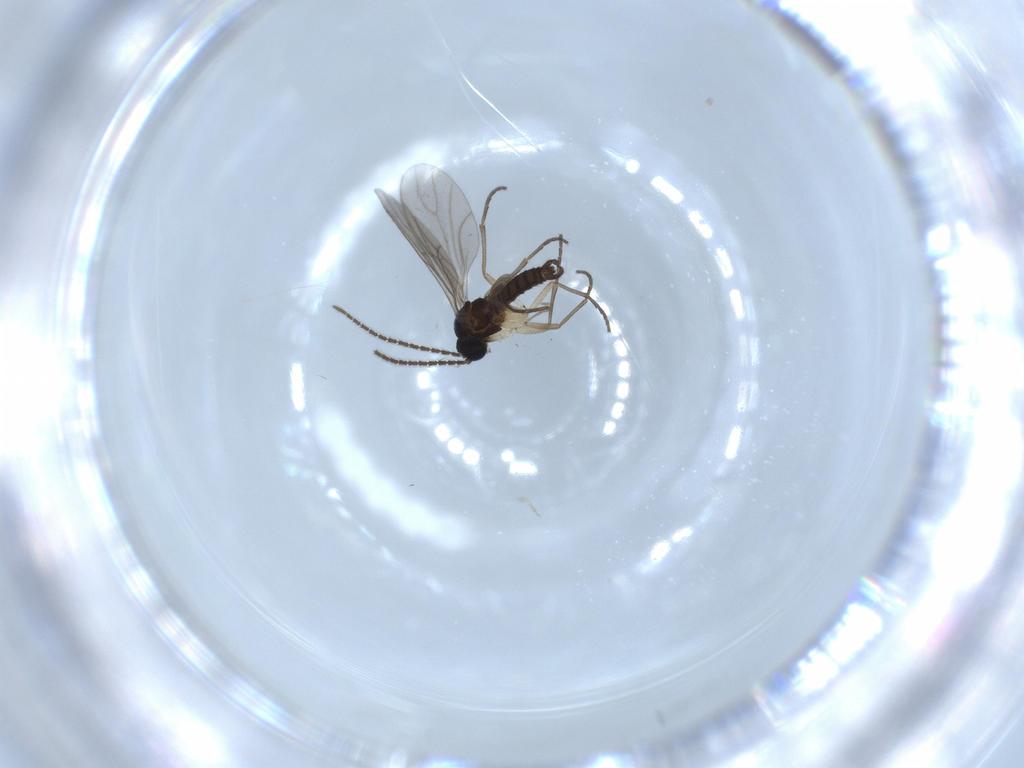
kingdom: Animalia
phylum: Arthropoda
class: Insecta
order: Diptera
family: Sciaridae
